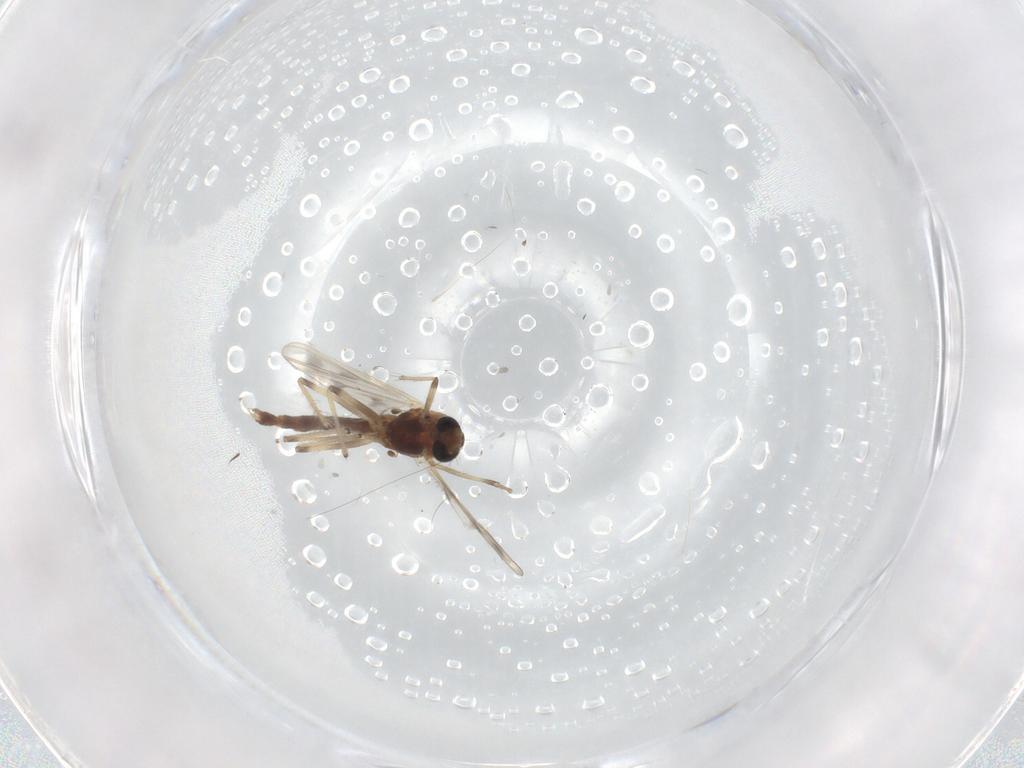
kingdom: Animalia
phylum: Arthropoda
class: Insecta
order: Diptera
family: Chironomidae
